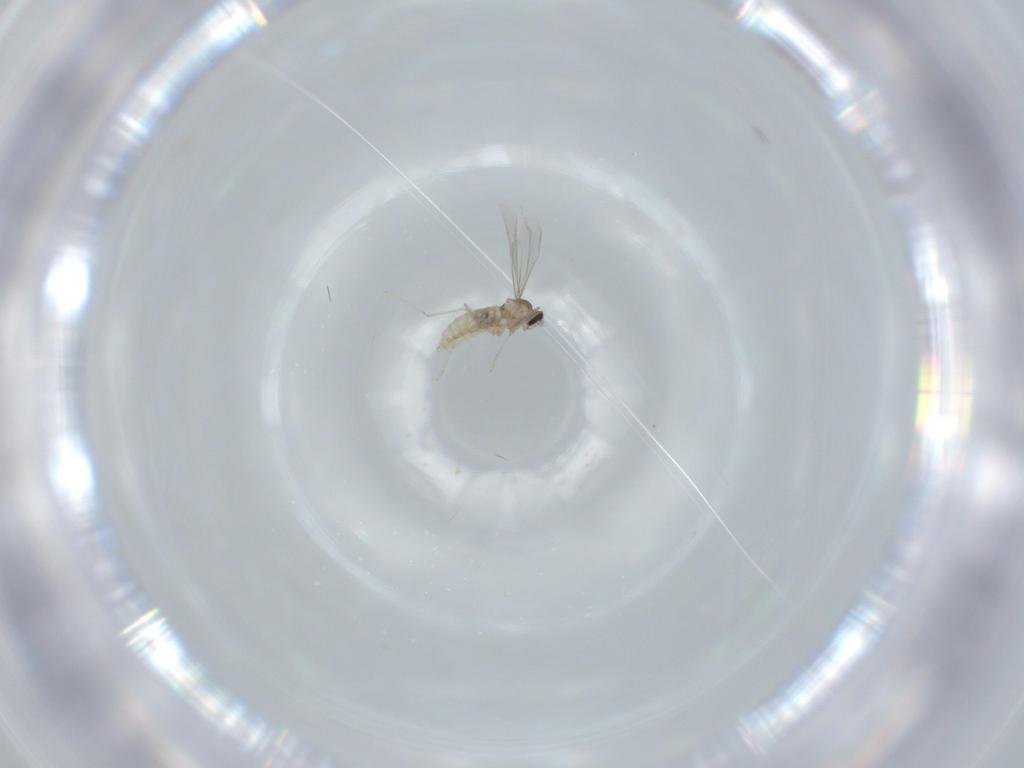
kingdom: Animalia
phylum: Arthropoda
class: Insecta
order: Diptera
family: Cecidomyiidae
